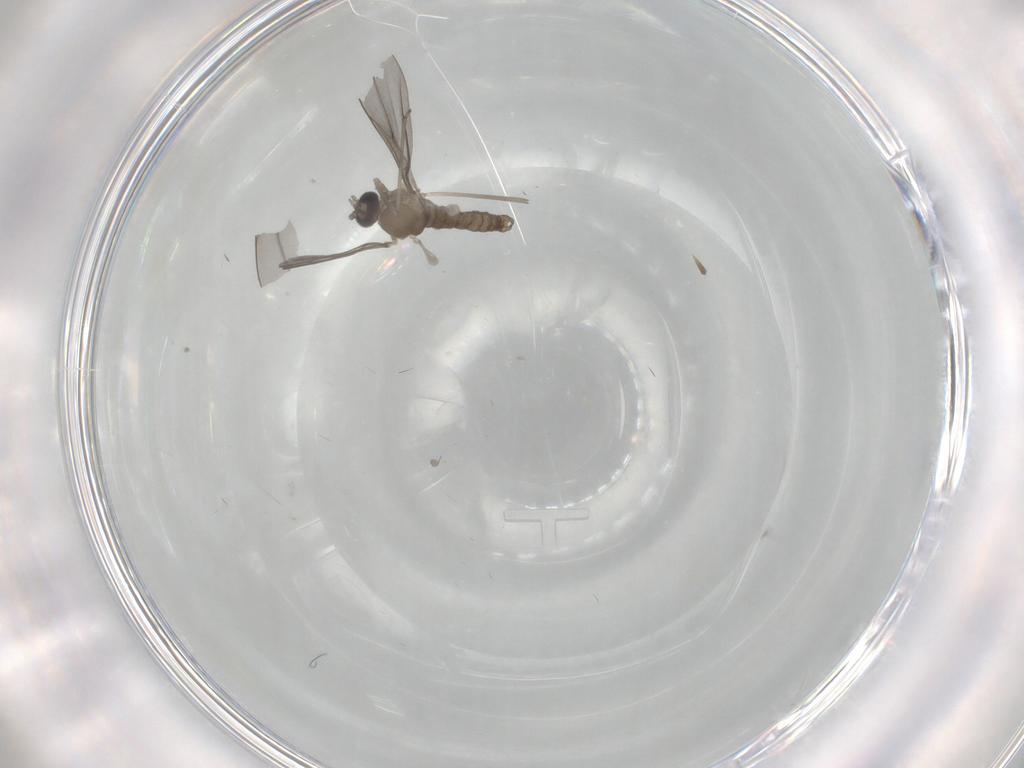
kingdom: Animalia
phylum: Arthropoda
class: Insecta
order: Diptera
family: Cecidomyiidae
